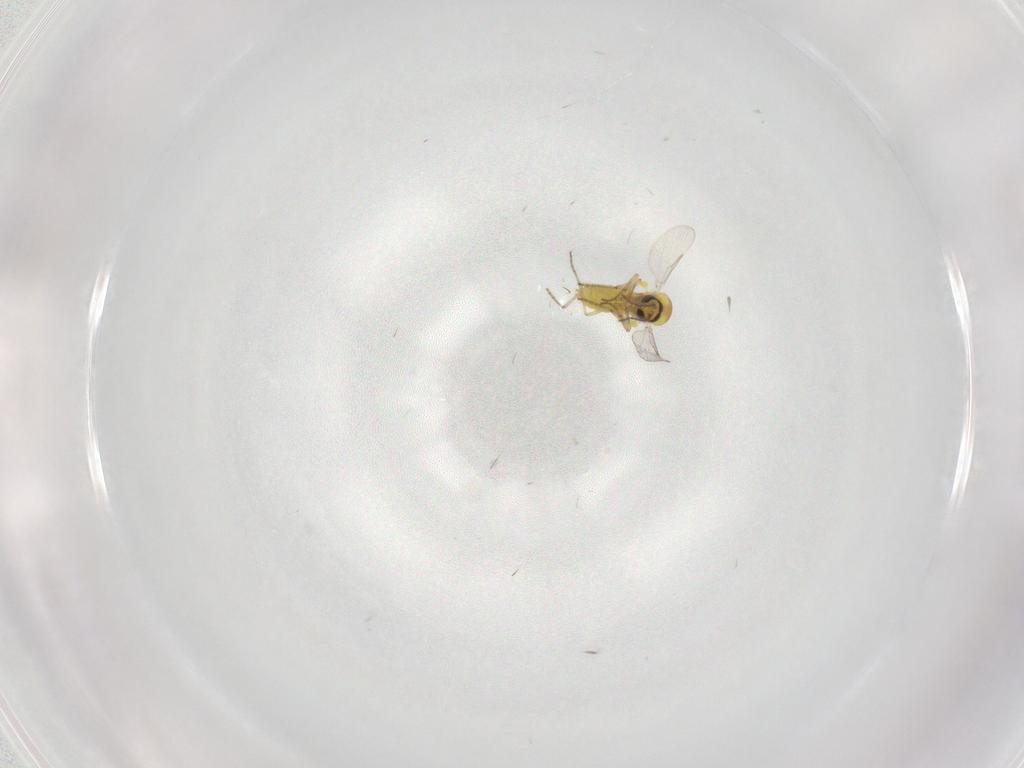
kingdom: Animalia
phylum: Arthropoda
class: Insecta
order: Diptera
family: Ceratopogonidae
